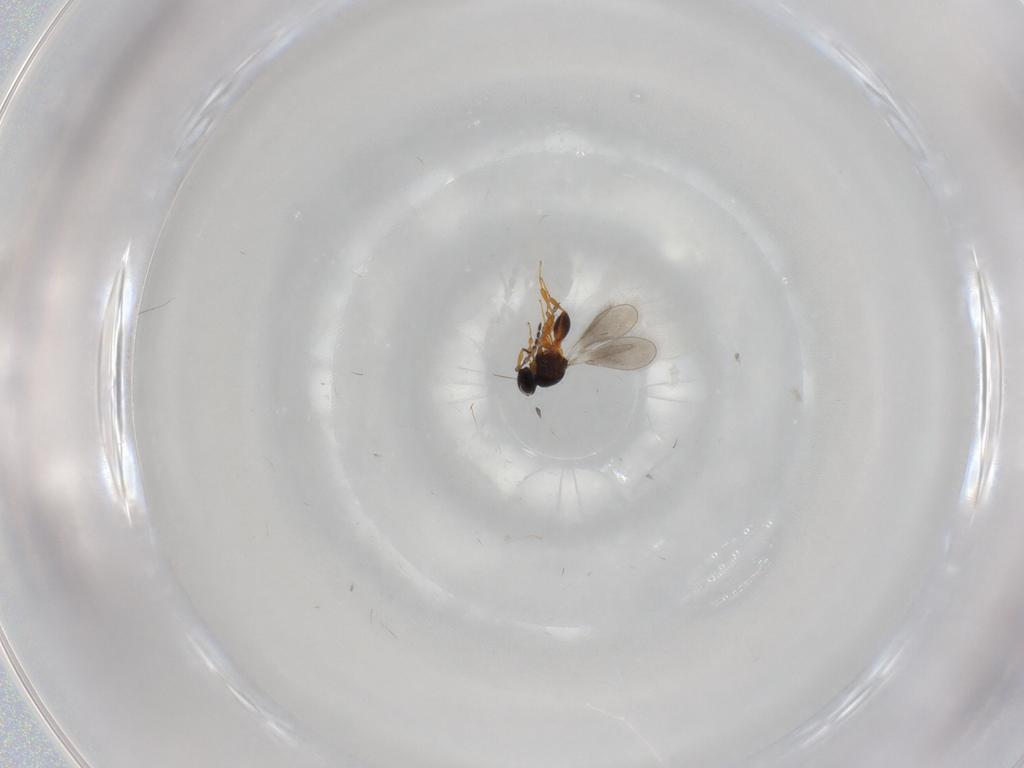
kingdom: Animalia
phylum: Arthropoda
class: Insecta
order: Hymenoptera
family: Platygastridae
